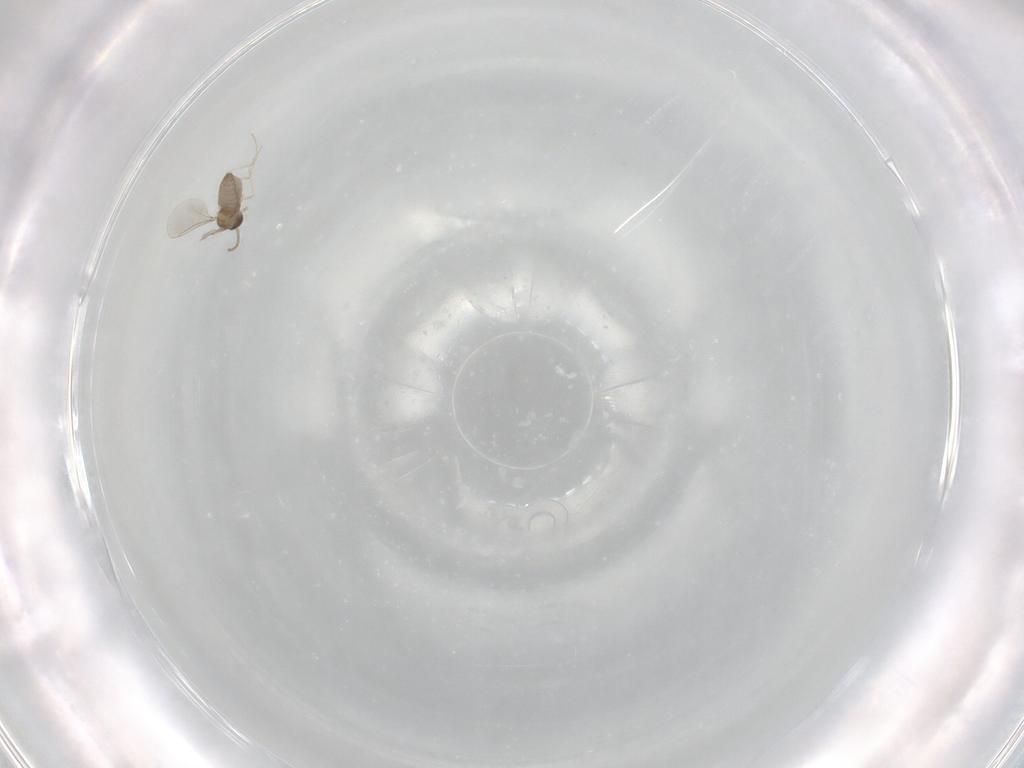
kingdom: Animalia
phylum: Arthropoda
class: Insecta
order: Diptera
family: Cecidomyiidae
